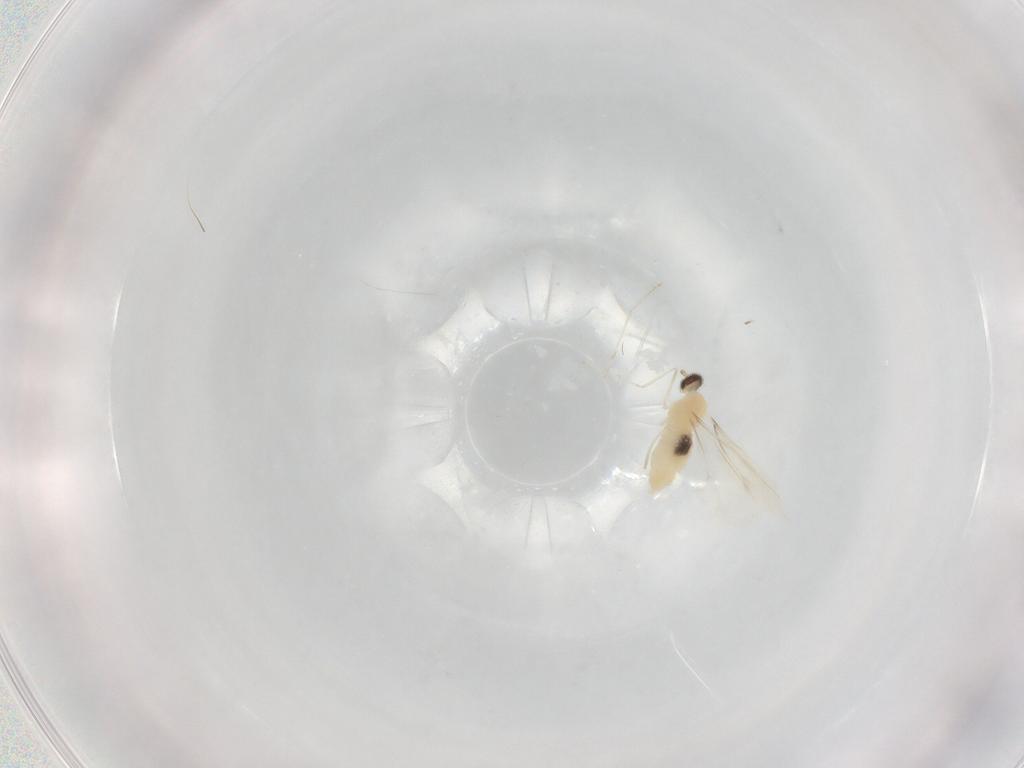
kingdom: Animalia
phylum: Arthropoda
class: Insecta
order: Diptera
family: Cecidomyiidae
